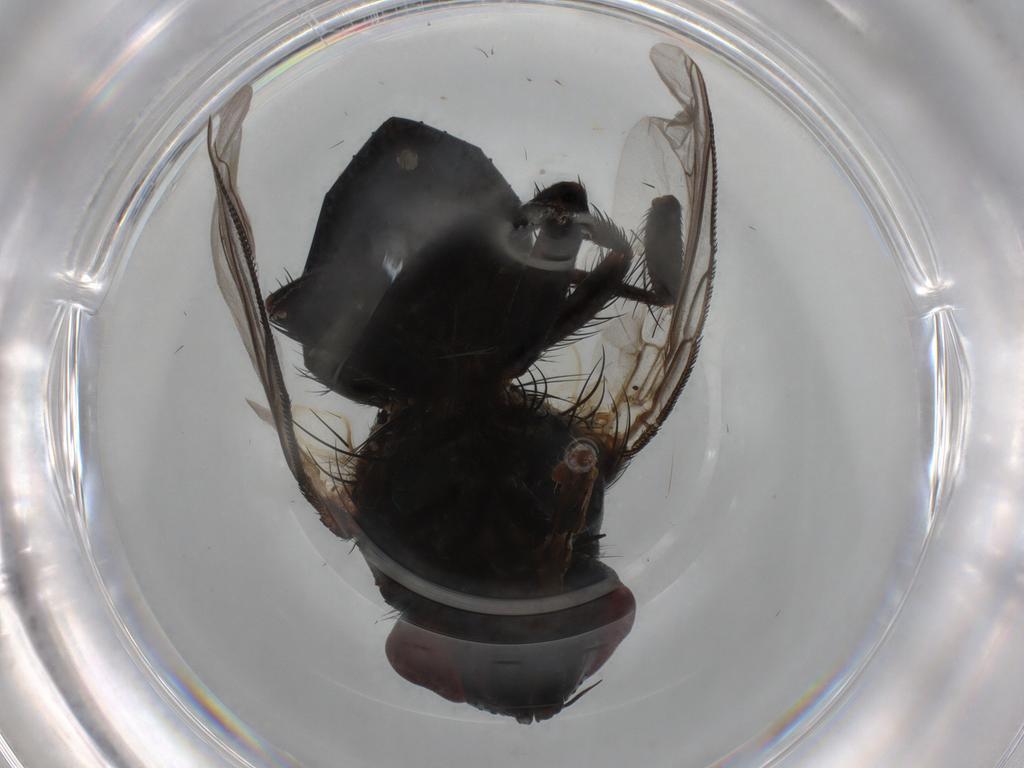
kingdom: Animalia
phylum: Arthropoda
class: Insecta
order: Diptera
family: Tachinidae
